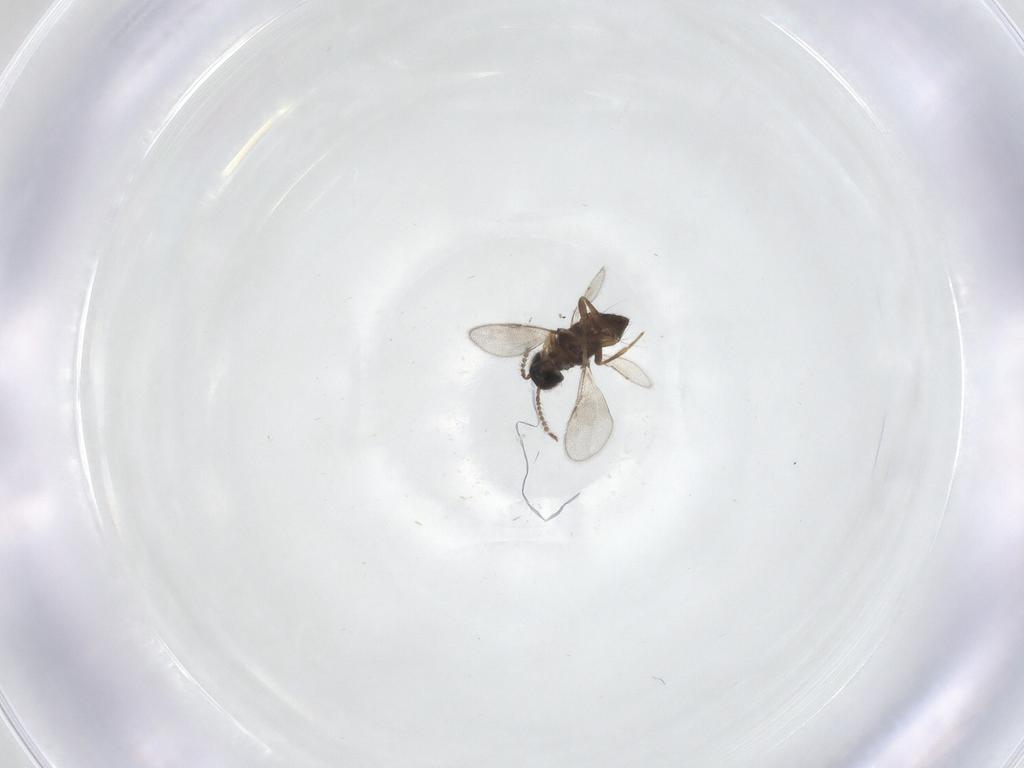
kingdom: Animalia
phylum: Arthropoda
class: Insecta
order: Hymenoptera
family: Encyrtidae
